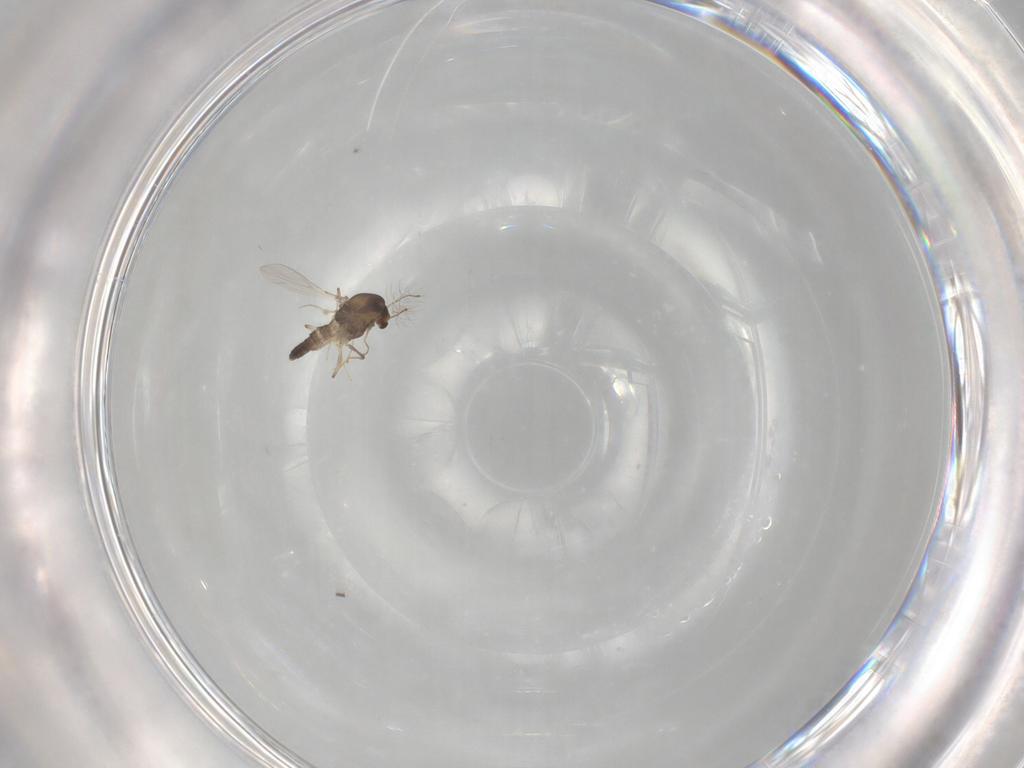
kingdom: Animalia
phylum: Arthropoda
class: Insecta
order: Diptera
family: Chironomidae
